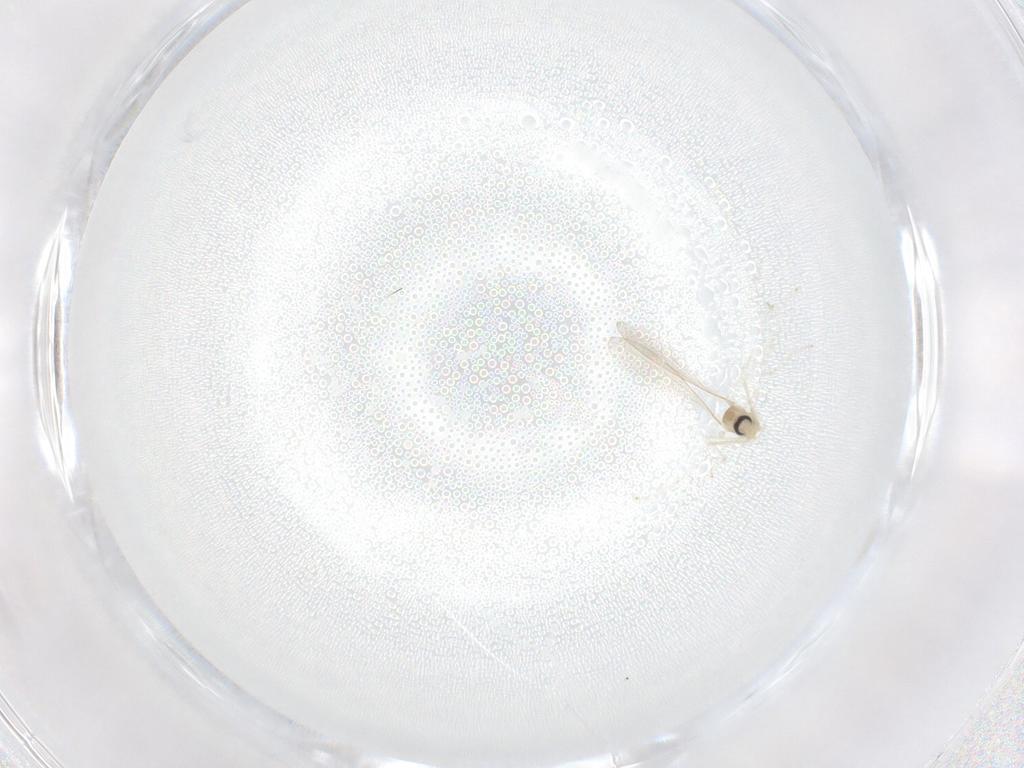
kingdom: Animalia
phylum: Arthropoda
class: Insecta
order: Diptera
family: Cecidomyiidae
